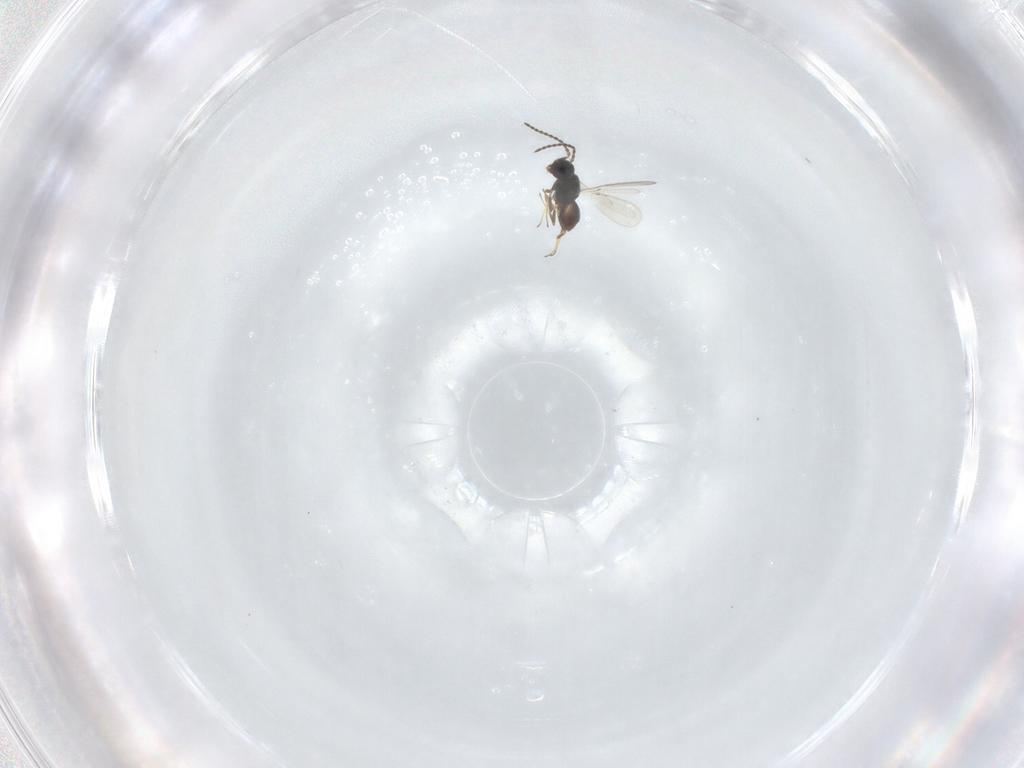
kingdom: Animalia
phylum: Arthropoda
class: Insecta
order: Hymenoptera
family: Scelionidae
